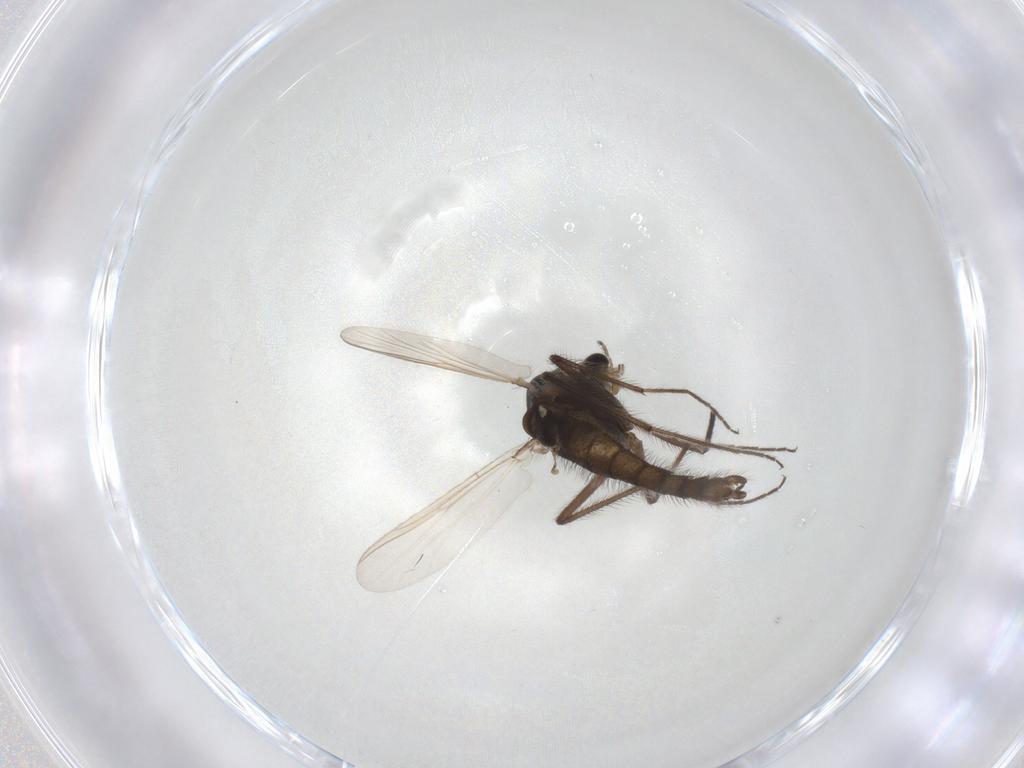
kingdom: Animalia
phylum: Arthropoda
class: Insecta
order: Diptera
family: Chironomidae
